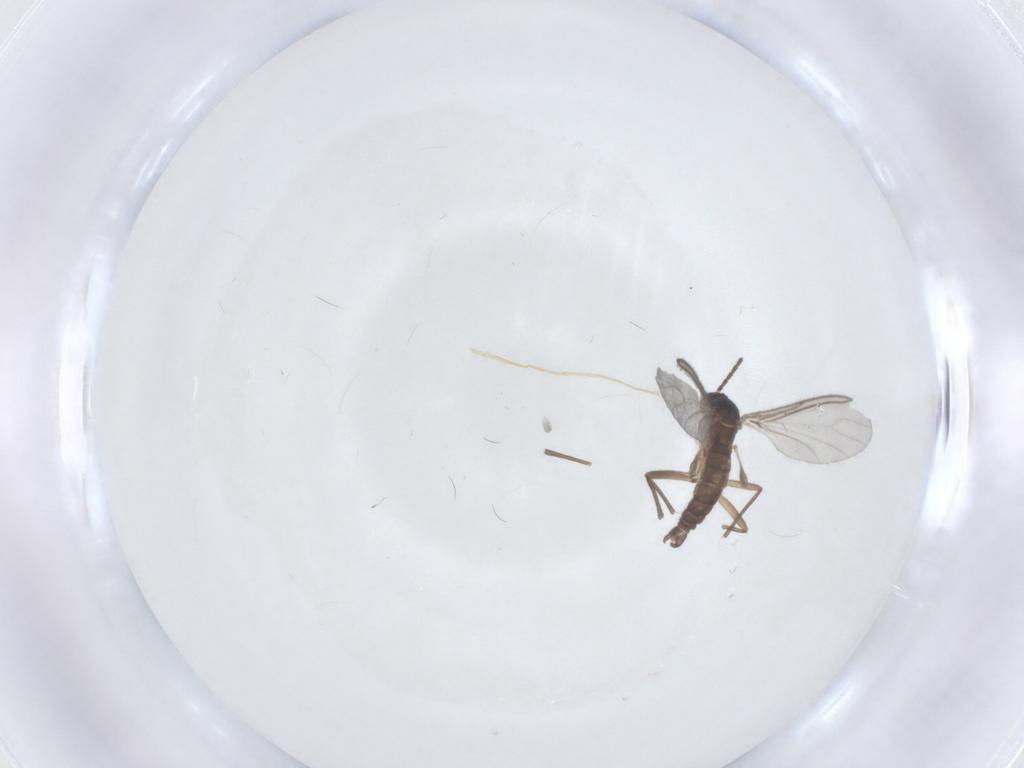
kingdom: Animalia
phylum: Arthropoda
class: Insecta
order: Diptera
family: Sciaridae
